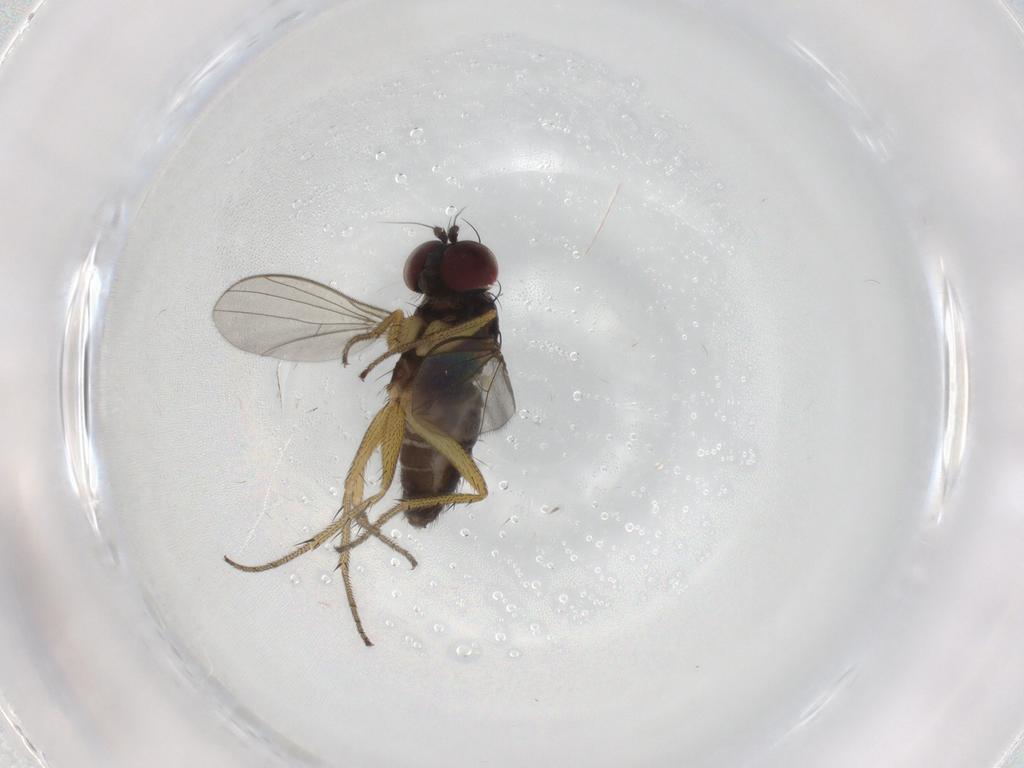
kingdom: Animalia
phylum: Arthropoda
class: Insecta
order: Diptera
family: Dolichopodidae
